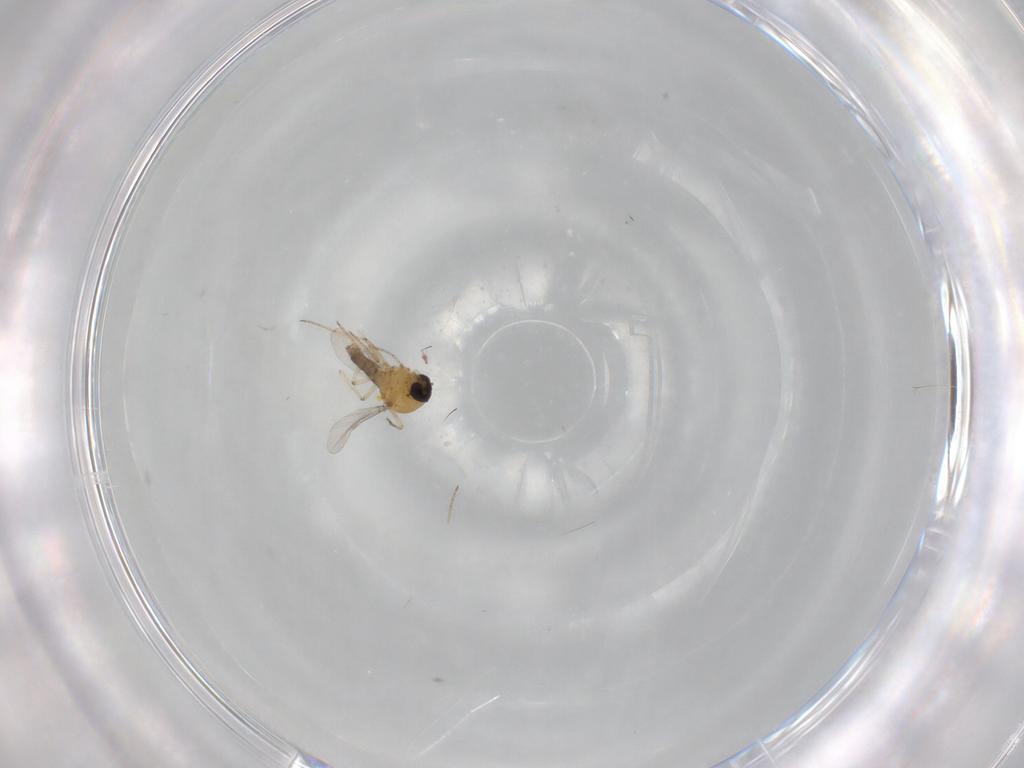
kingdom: Animalia
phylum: Arthropoda
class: Insecta
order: Diptera
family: Ceratopogonidae
